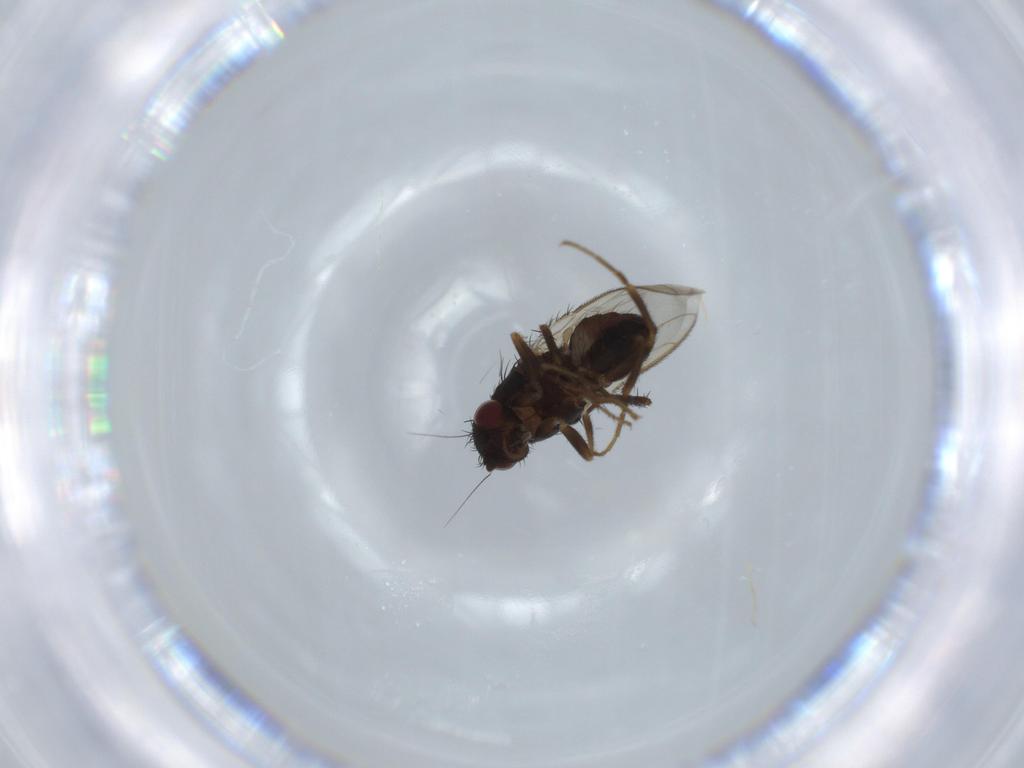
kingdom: Animalia
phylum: Arthropoda
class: Insecta
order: Diptera
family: Sphaeroceridae
